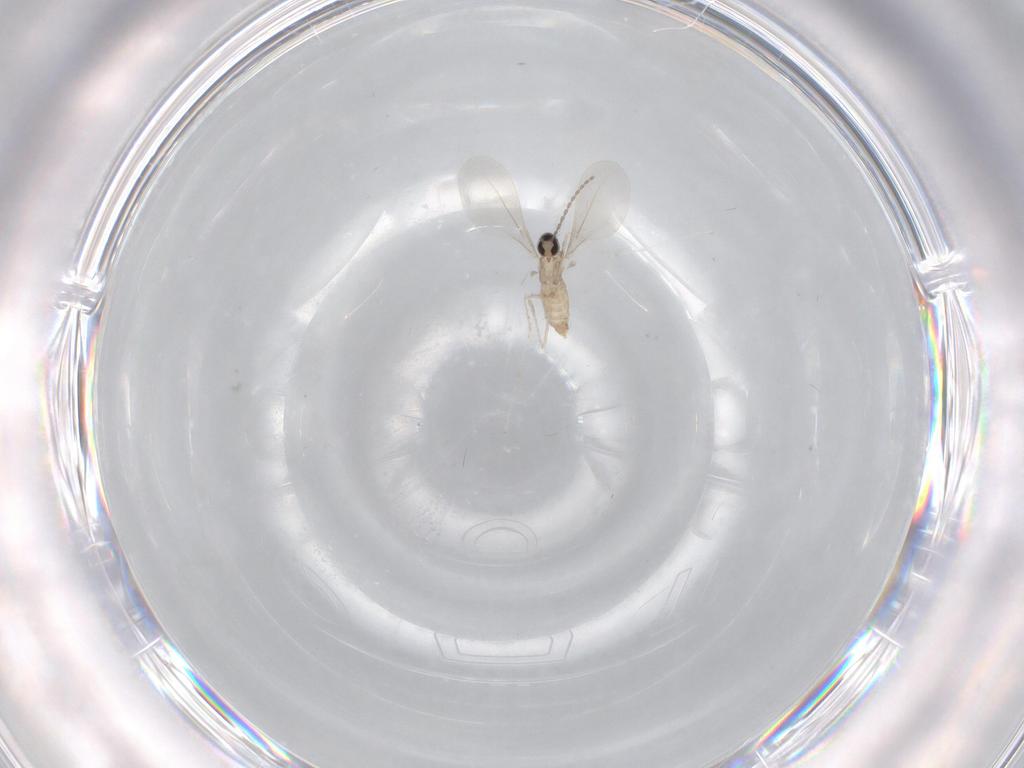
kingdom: Animalia
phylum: Arthropoda
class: Insecta
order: Diptera
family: Cecidomyiidae
